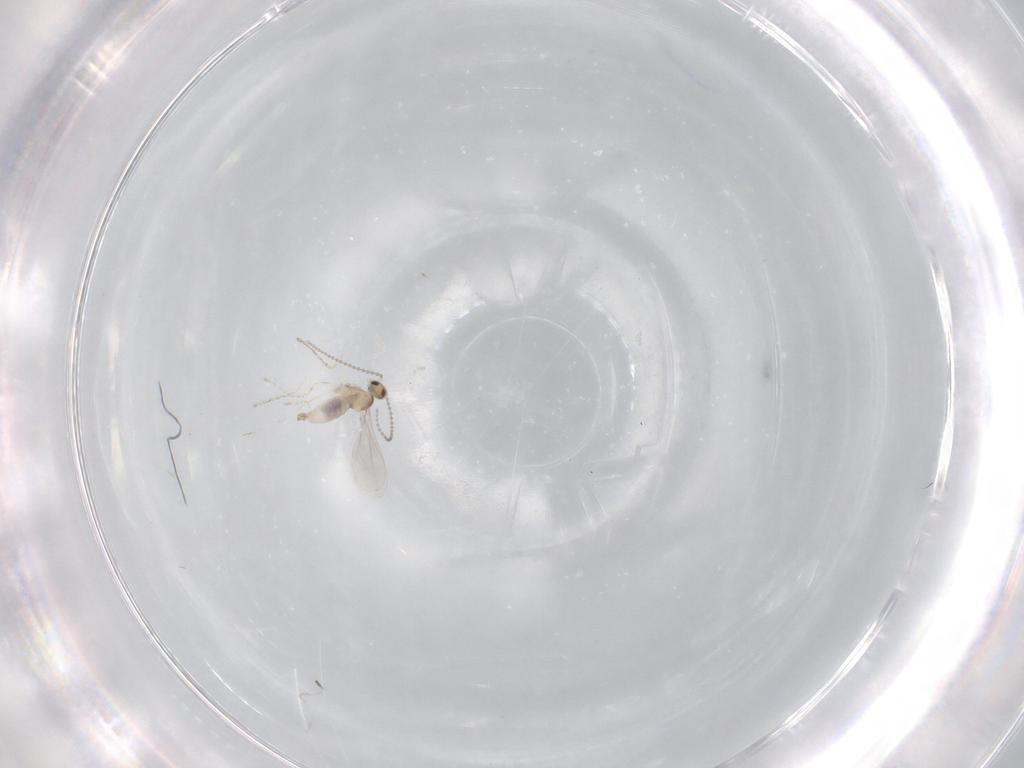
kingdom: Animalia
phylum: Arthropoda
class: Insecta
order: Diptera
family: Cecidomyiidae
